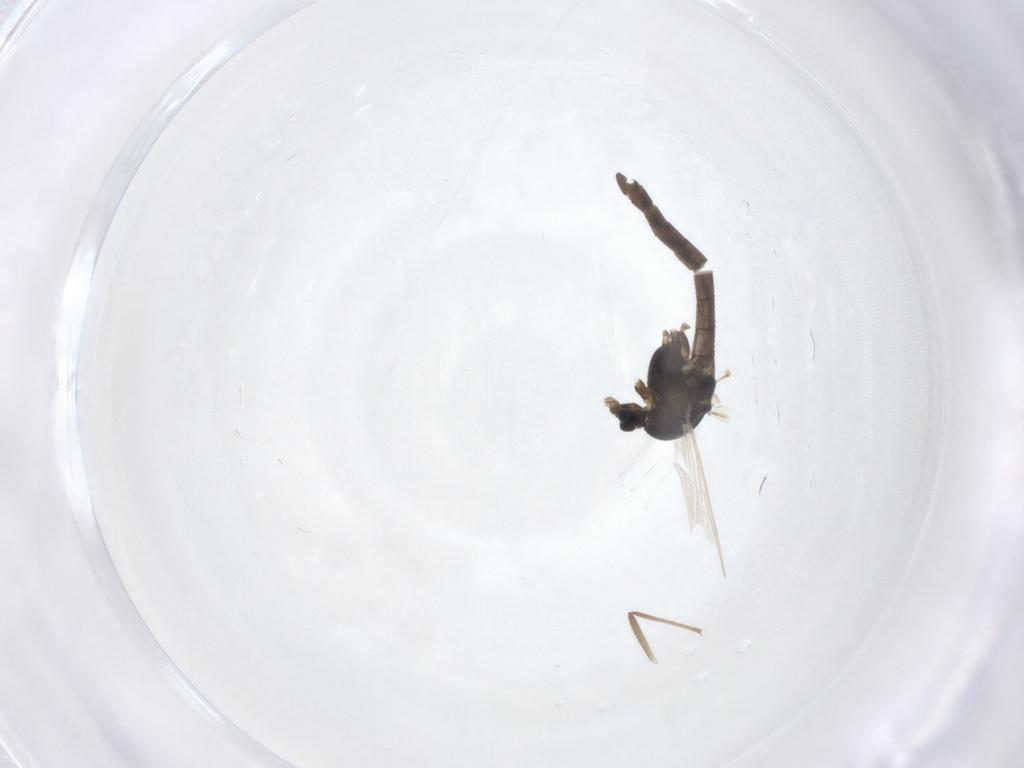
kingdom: Animalia
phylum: Arthropoda
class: Insecta
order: Diptera
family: Chironomidae
